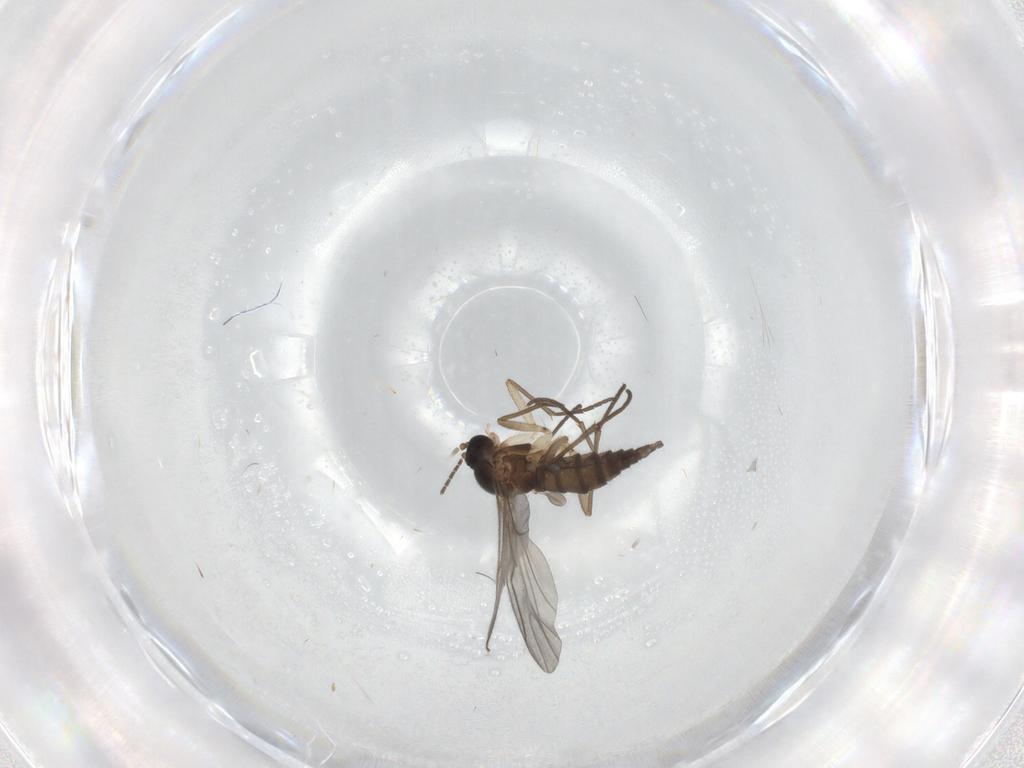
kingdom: Animalia
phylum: Arthropoda
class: Insecta
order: Diptera
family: Sciaridae
